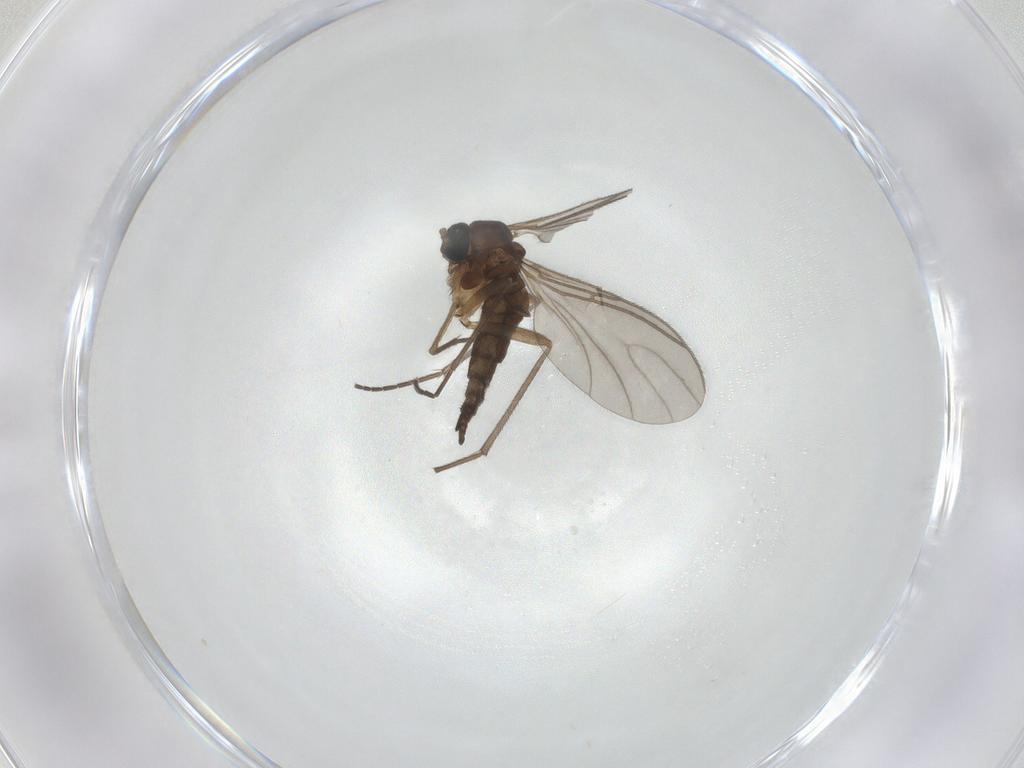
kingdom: Animalia
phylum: Arthropoda
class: Insecta
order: Diptera
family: Sciaridae
